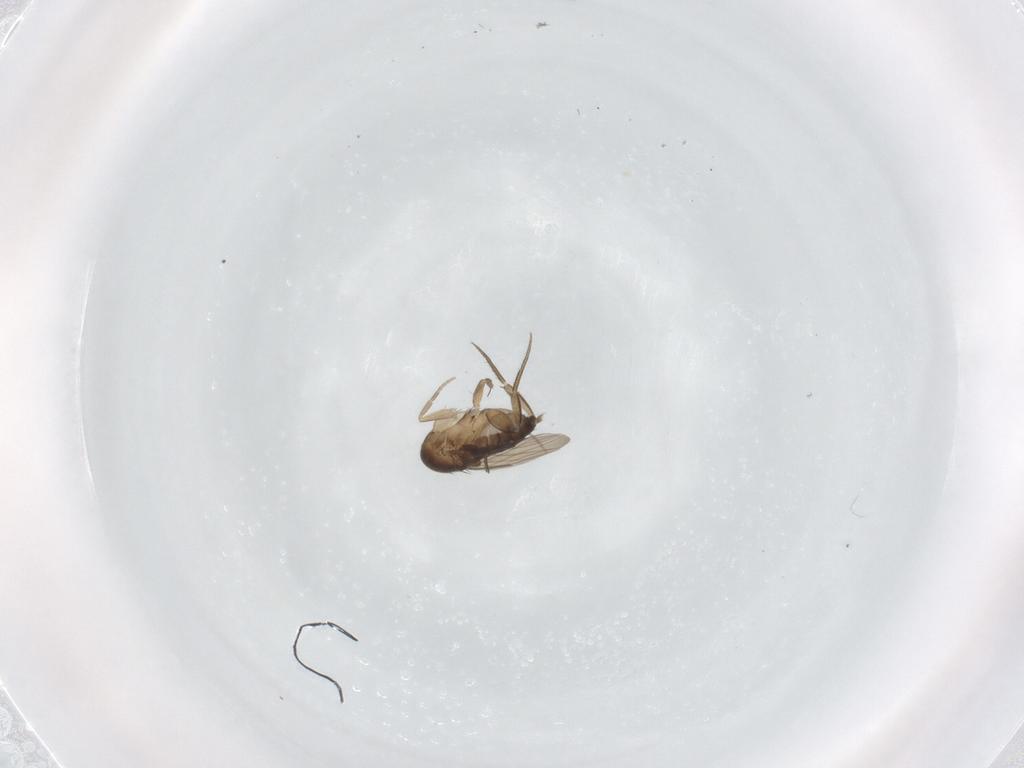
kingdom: Animalia
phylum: Arthropoda
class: Insecta
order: Diptera
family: Phoridae
